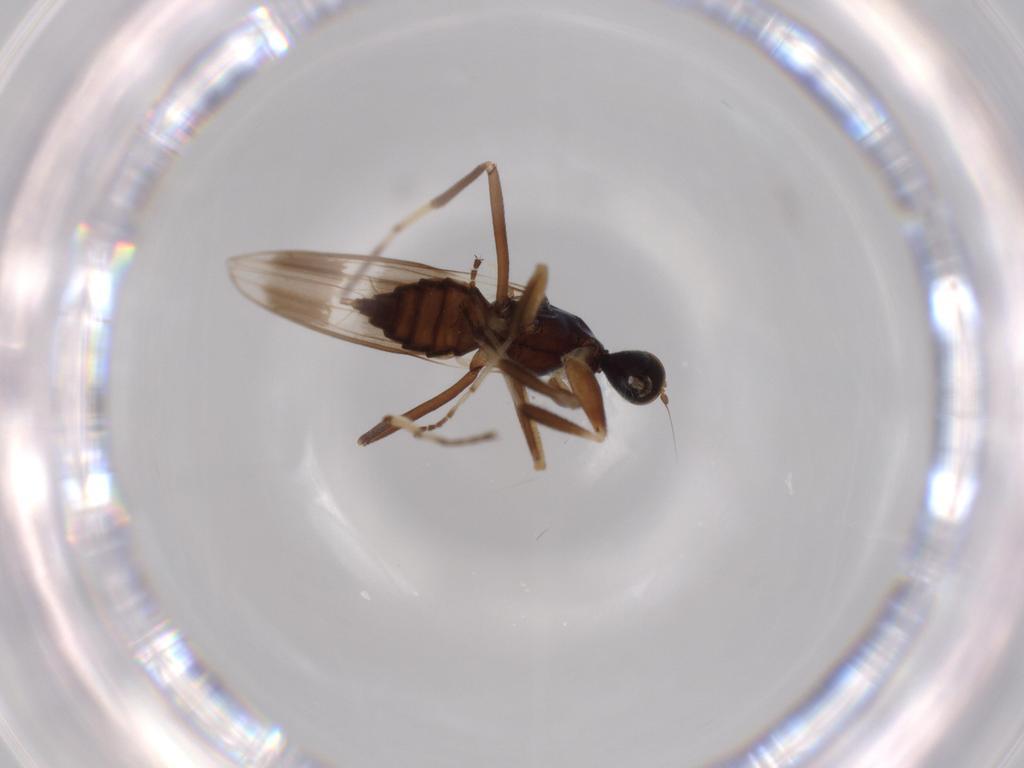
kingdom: Animalia
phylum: Arthropoda
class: Insecta
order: Diptera
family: Hybotidae
